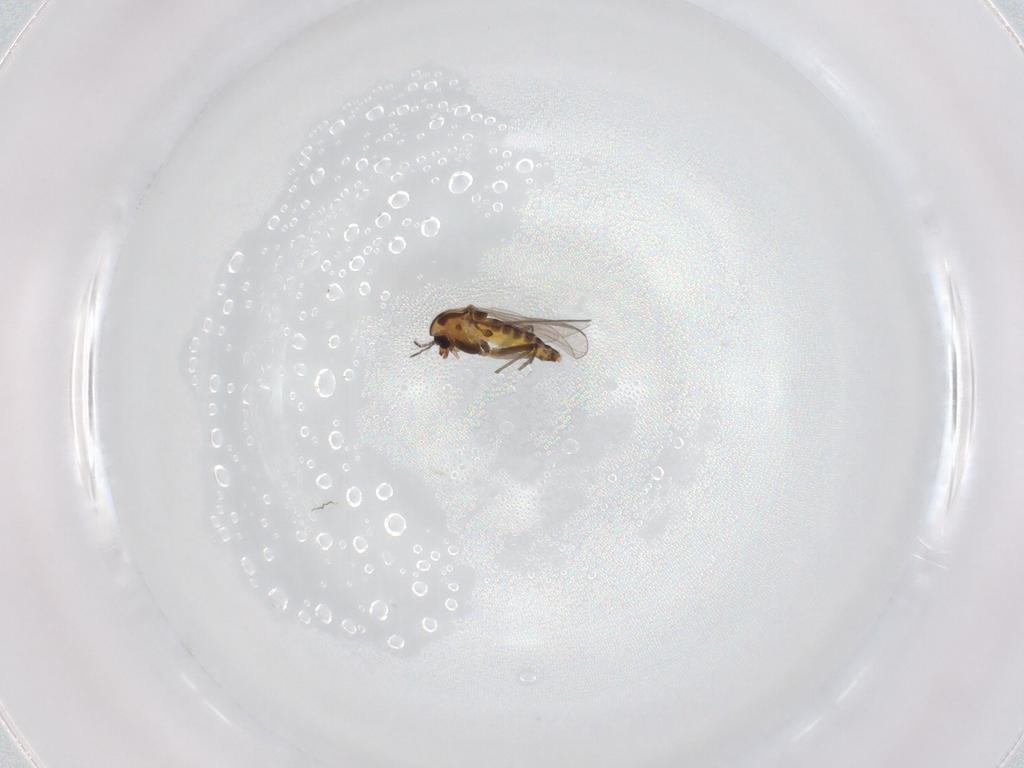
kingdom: Animalia
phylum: Arthropoda
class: Insecta
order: Diptera
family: Chironomidae
